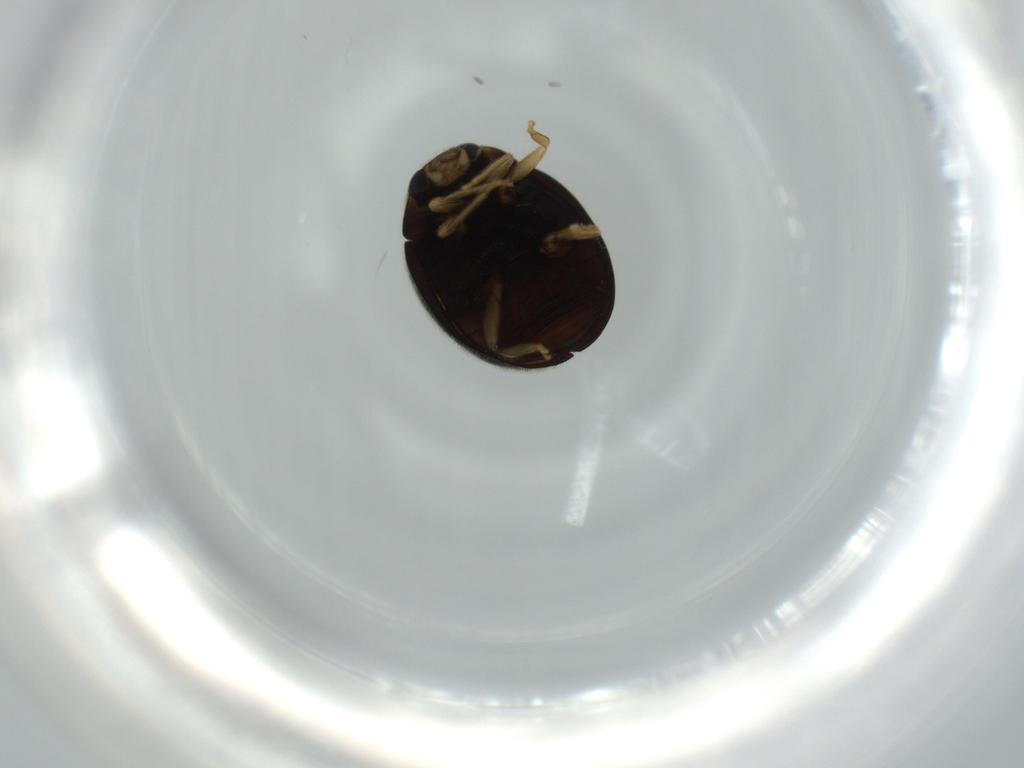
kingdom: Animalia
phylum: Arthropoda
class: Insecta
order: Coleoptera
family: Coccinellidae
